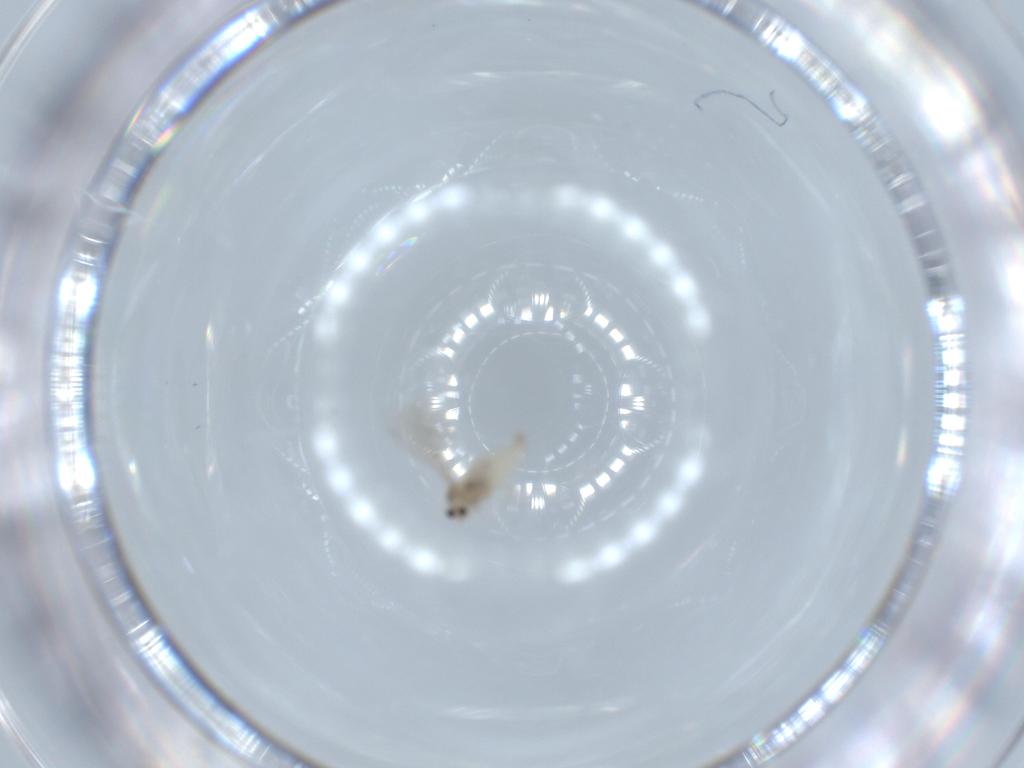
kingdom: Animalia
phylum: Arthropoda
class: Insecta
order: Diptera
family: Cecidomyiidae
